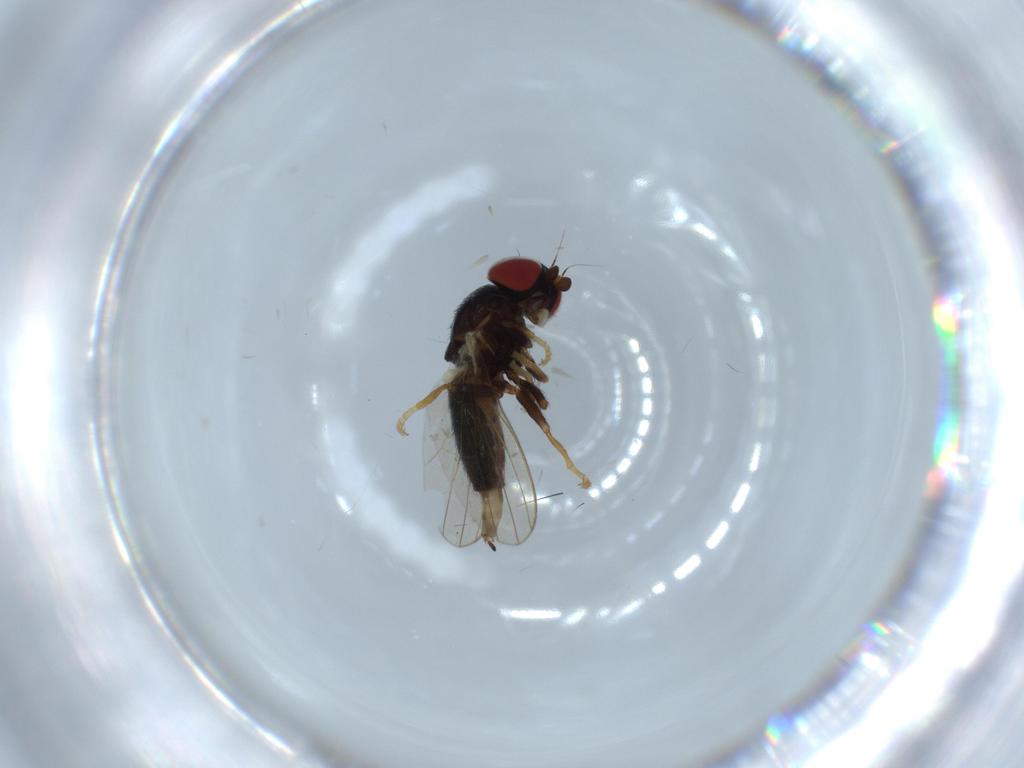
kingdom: Animalia
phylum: Arthropoda
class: Insecta
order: Diptera
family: Chamaemyiidae
